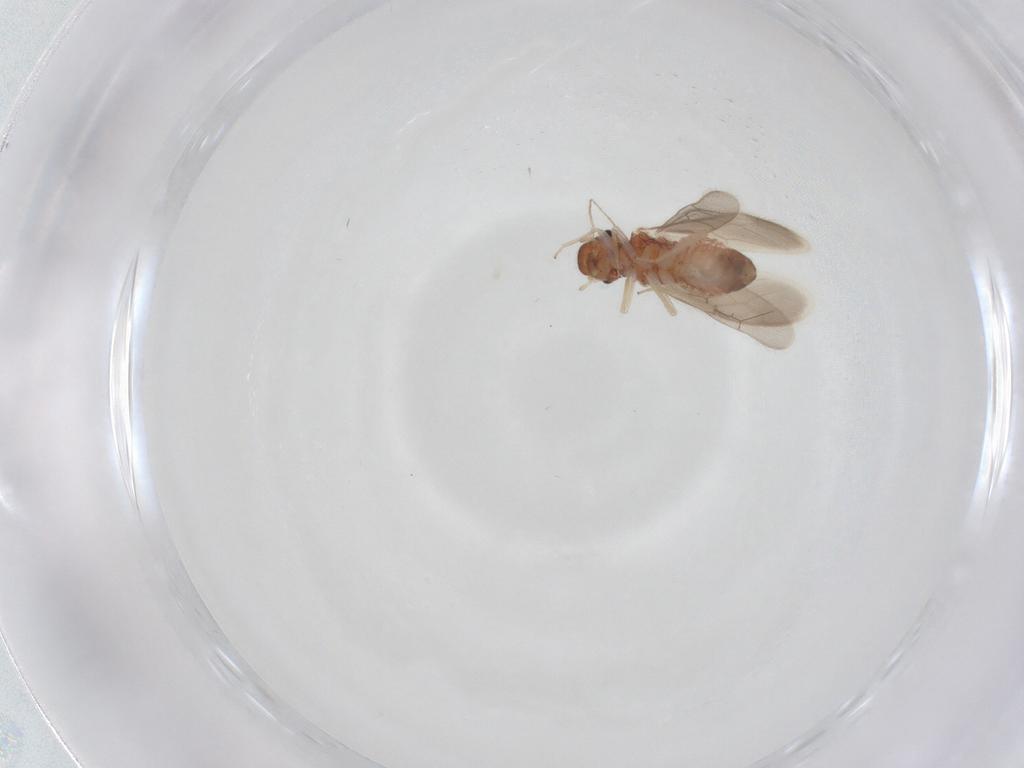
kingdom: Animalia
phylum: Arthropoda
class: Insecta
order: Psocodea
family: Archipsocidae
